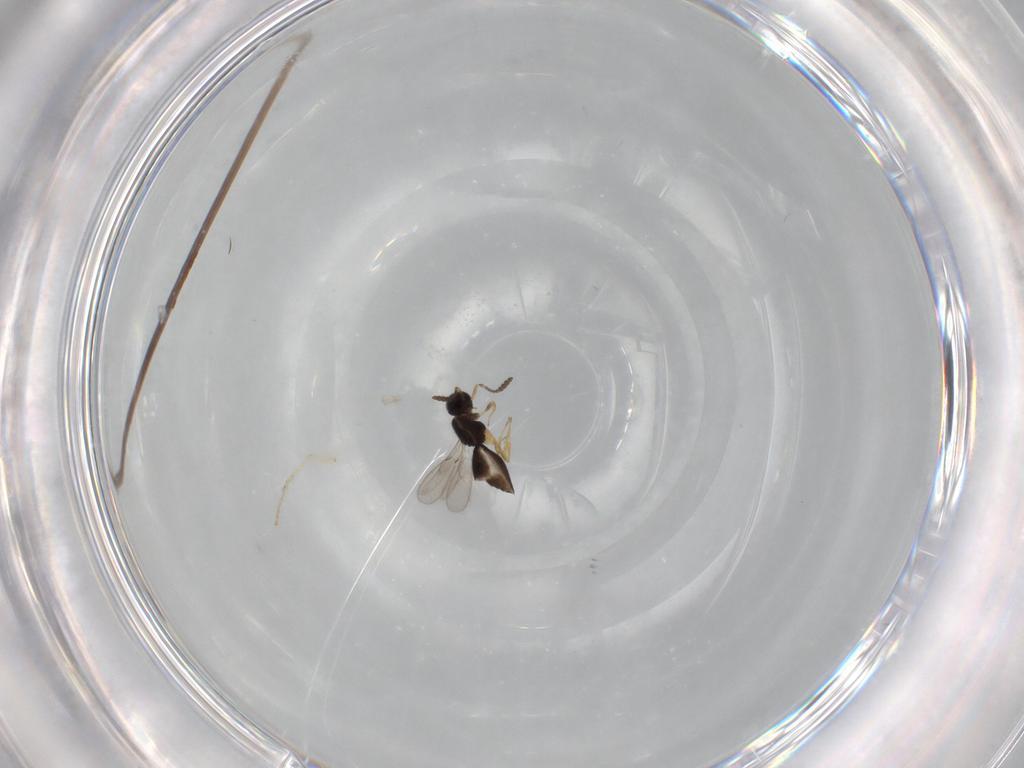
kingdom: Animalia
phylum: Arthropoda
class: Insecta
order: Hymenoptera
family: Scelionidae
